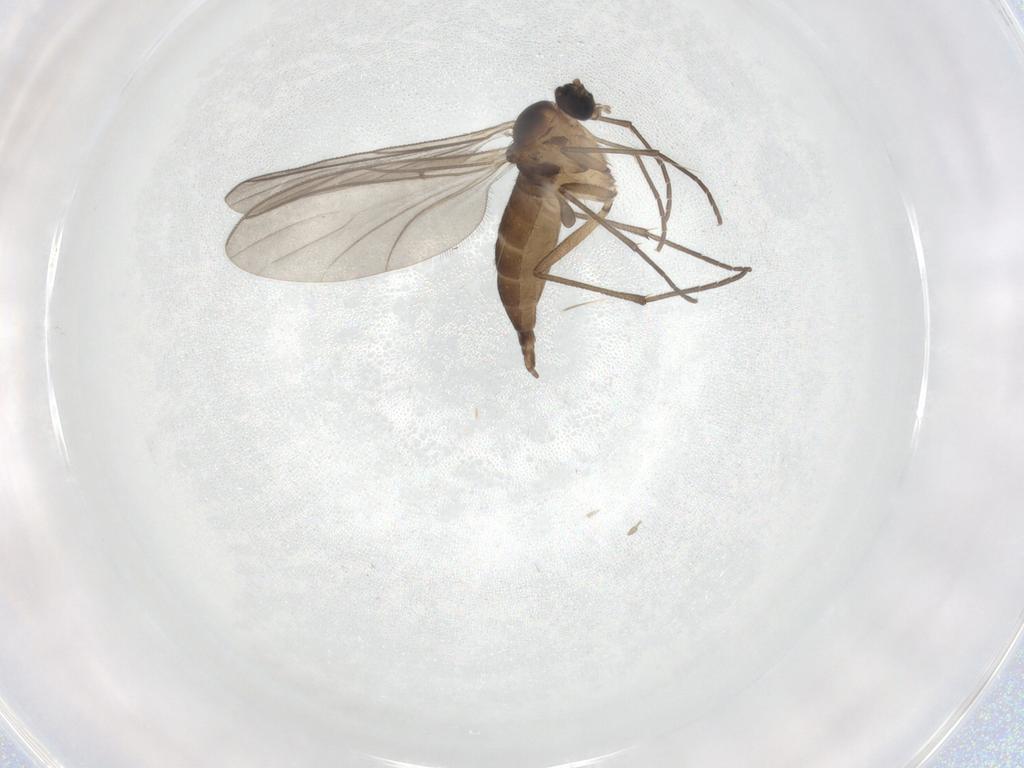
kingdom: Animalia
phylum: Arthropoda
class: Insecta
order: Diptera
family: Sciaridae
